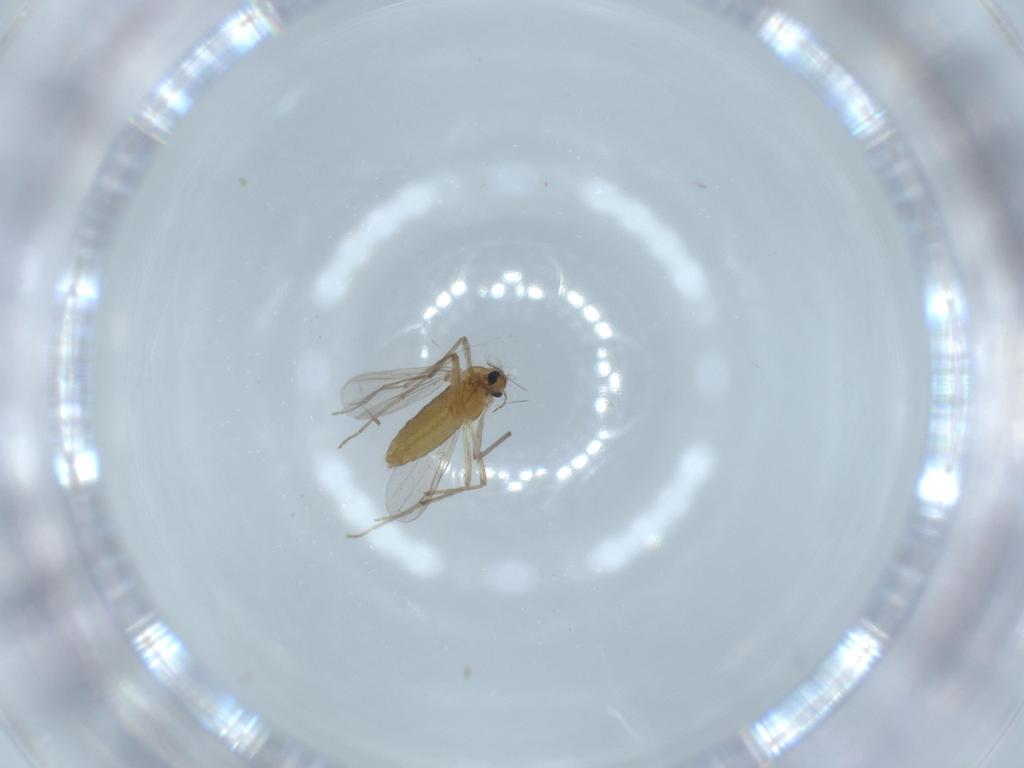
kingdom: Animalia
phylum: Arthropoda
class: Insecta
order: Diptera
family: Chironomidae
